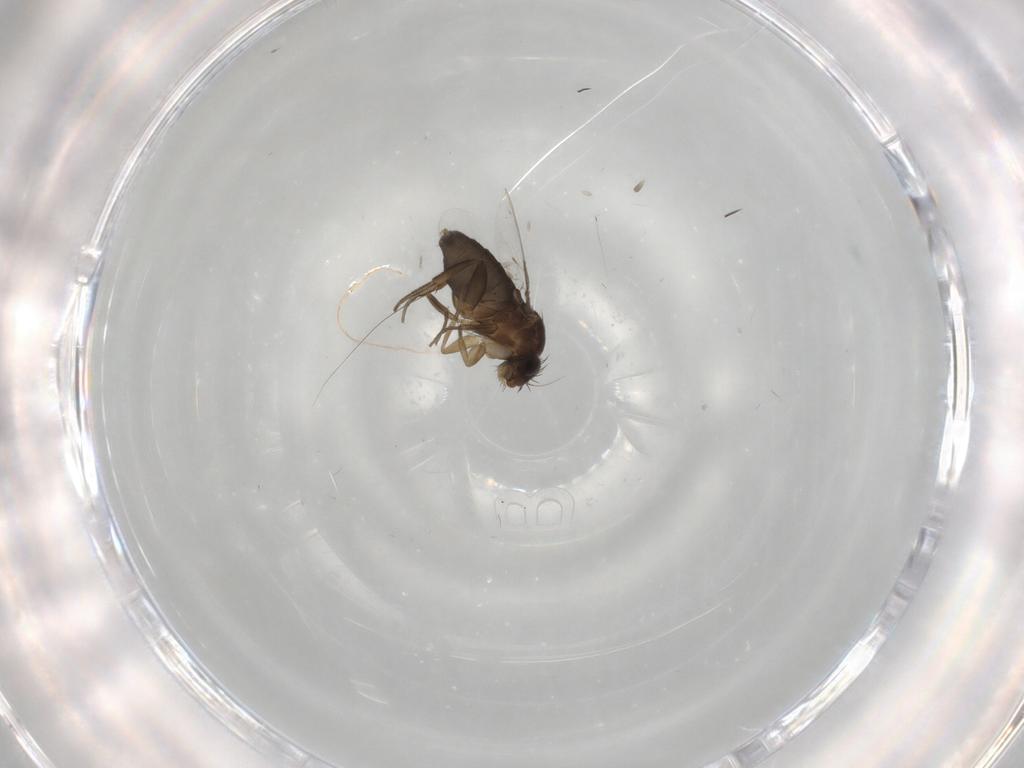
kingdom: Animalia
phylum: Arthropoda
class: Insecta
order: Diptera
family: Phoridae
